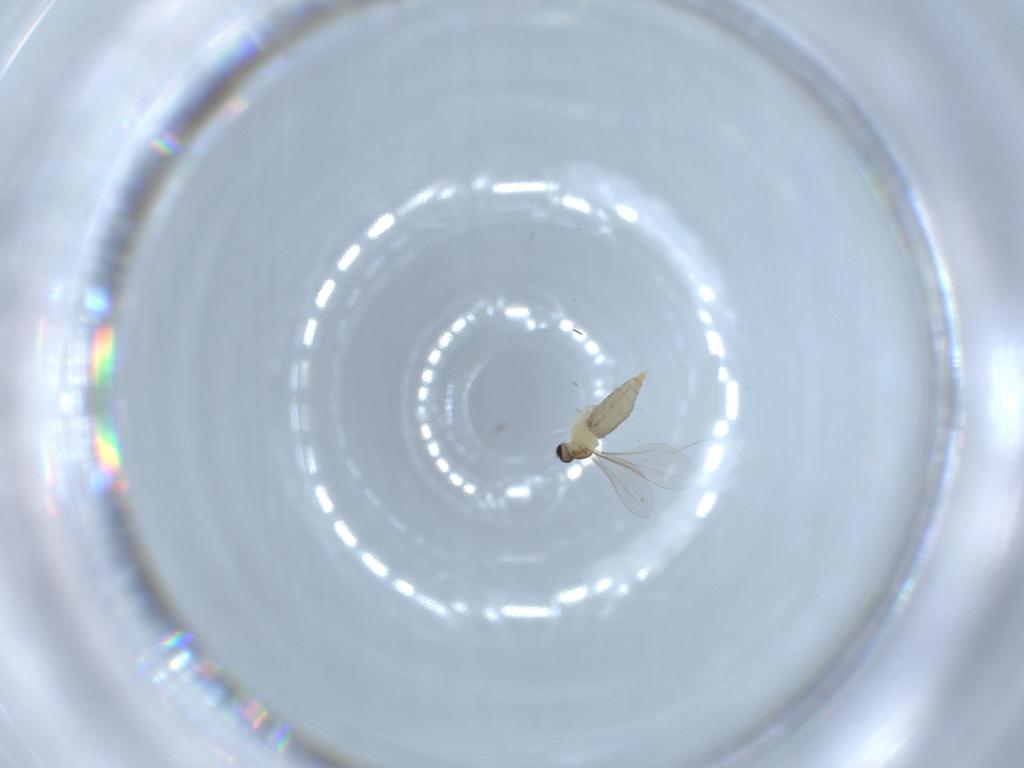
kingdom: Animalia
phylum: Arthropoda
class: Insecta
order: Diptera
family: Phoridae
